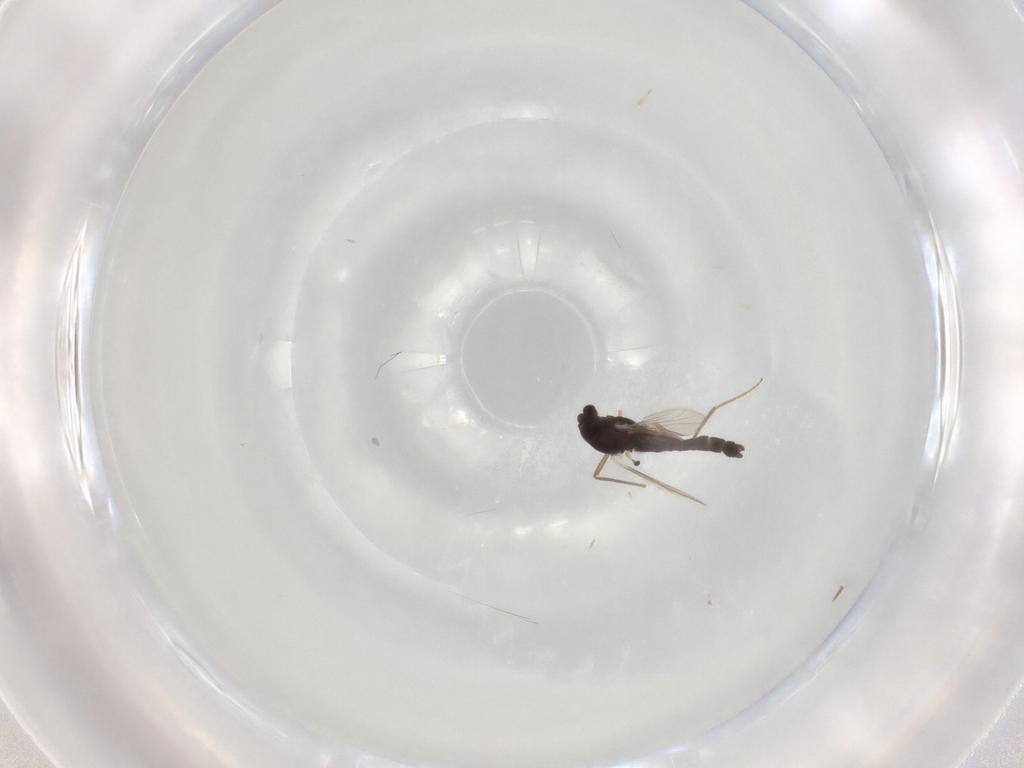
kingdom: Animalia
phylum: Arthropoda
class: Insecta
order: Diptera
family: Chironomidae
